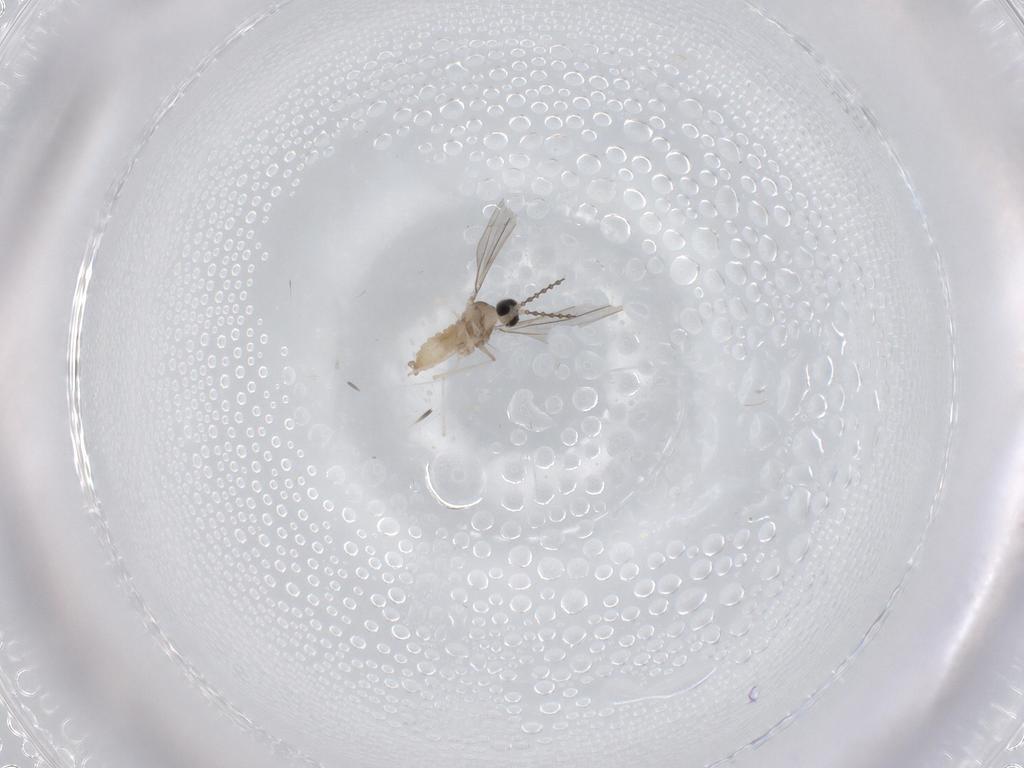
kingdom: Animalia
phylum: Arthropoda
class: Insecta
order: Diptera
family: Cecidomyiidae
